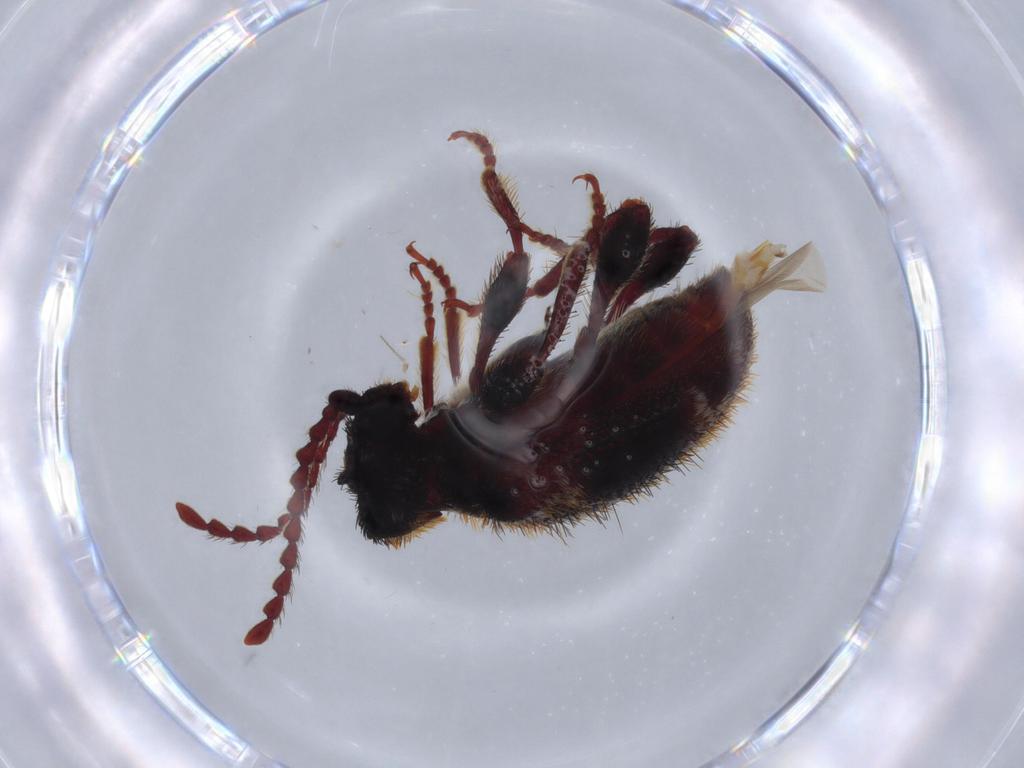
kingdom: Animalia
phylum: Arthropoda
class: Insecta
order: Coleoptera
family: Ptinidae
